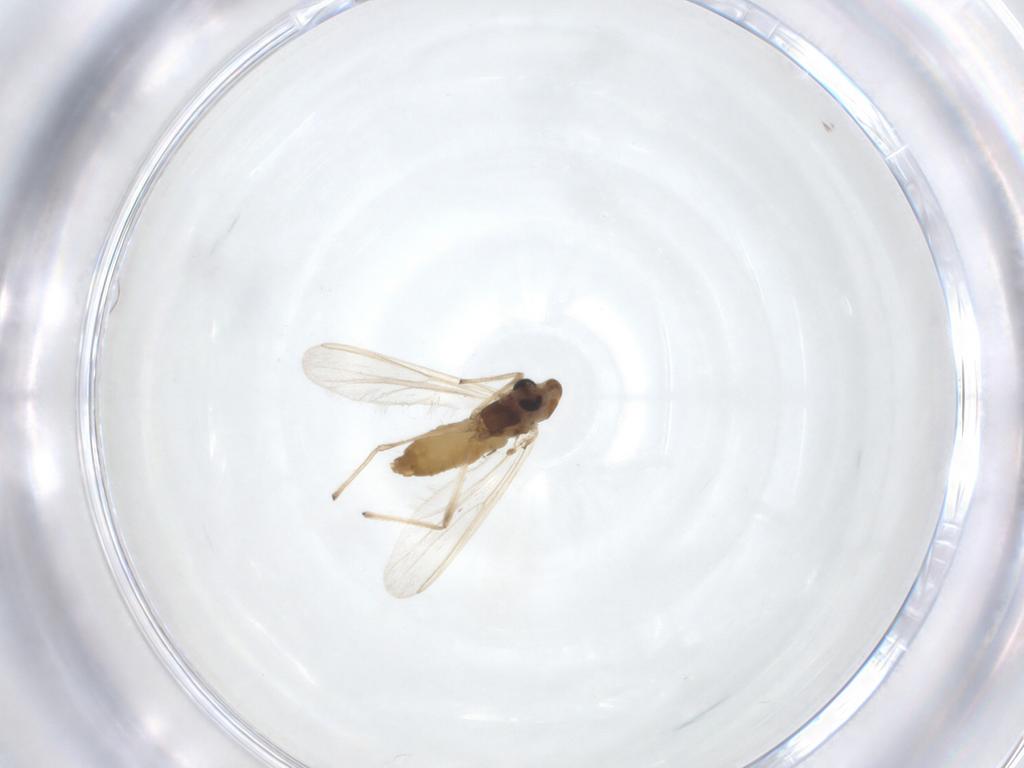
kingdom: Animalia
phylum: Arthropoda
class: Insecta
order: Diptera
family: Chironomidae
